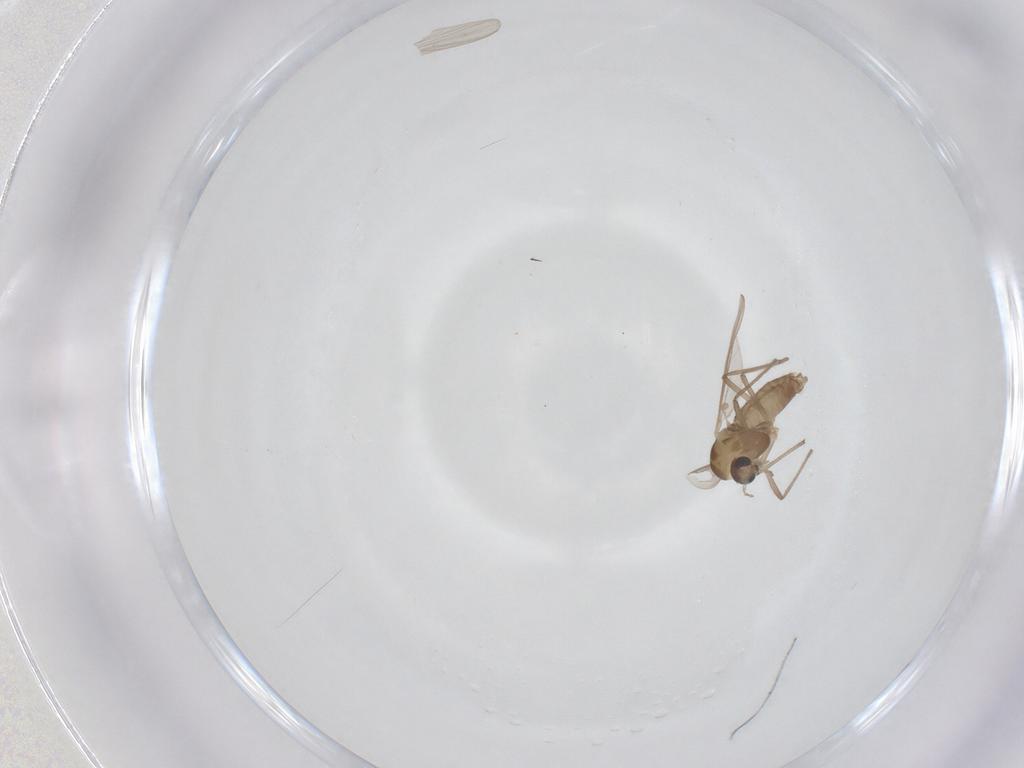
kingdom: Animalia
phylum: Arthropoda
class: Insecta
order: Diptera
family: Chironomidae
